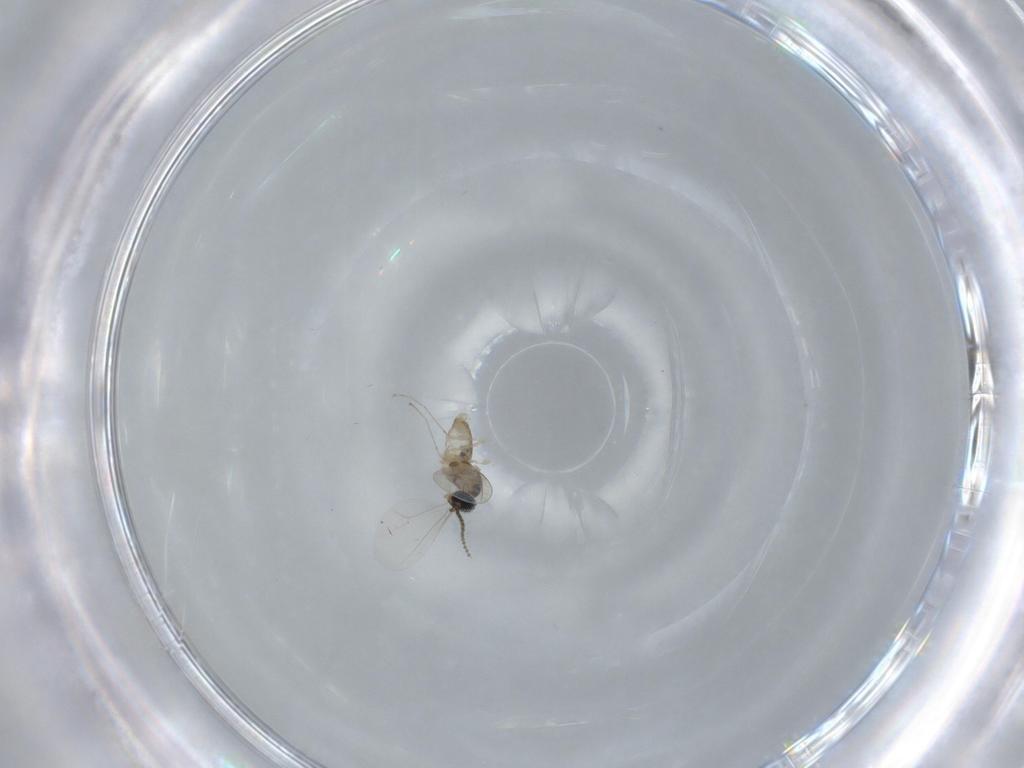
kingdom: Animalia
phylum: Arthropoda
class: Insecta
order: Diptera
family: Cecidomyiidae
